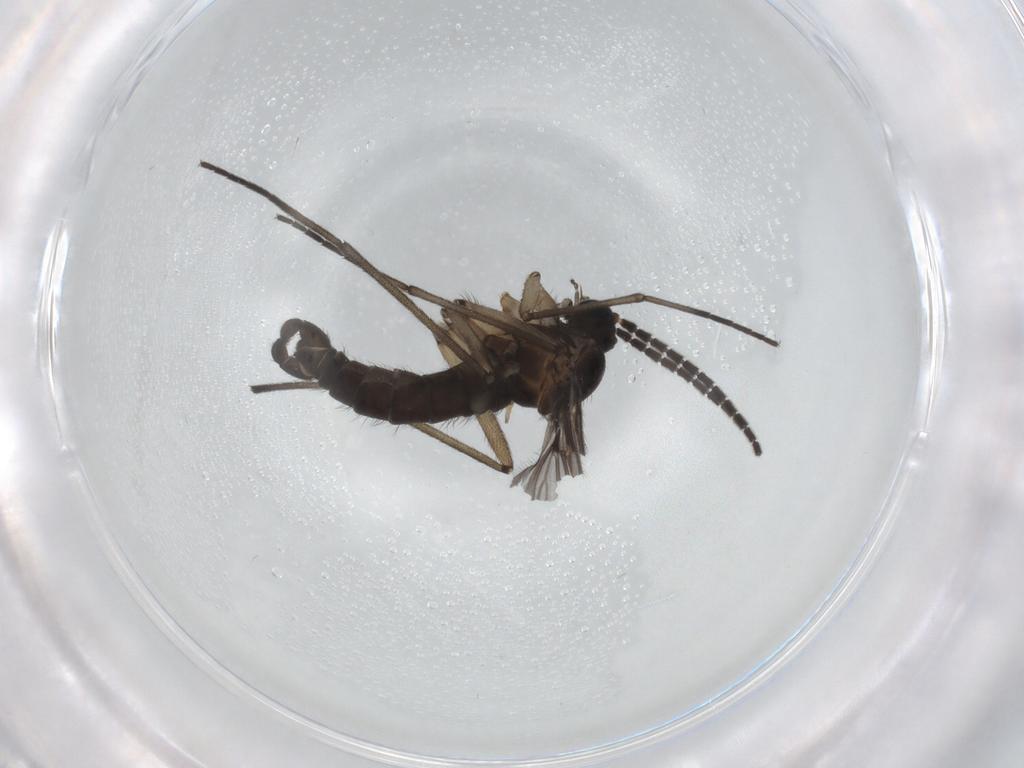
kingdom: Animalia
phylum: Arthropoda
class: Insecta
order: Diptera
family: Sciaridae
